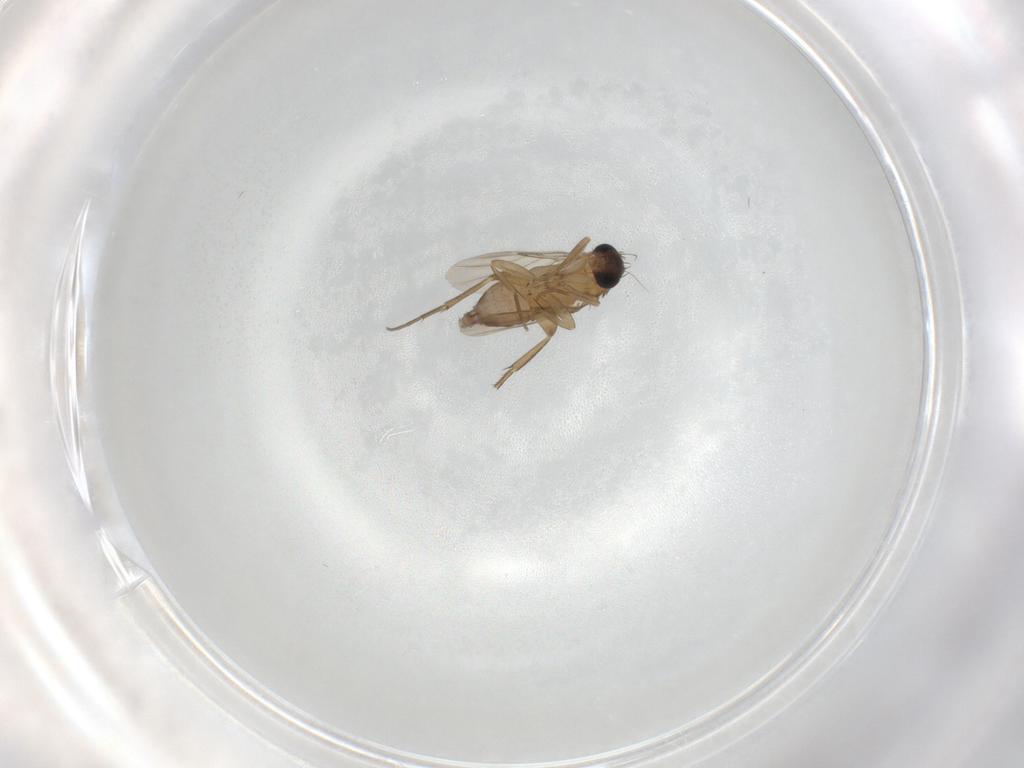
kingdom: Animalia
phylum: Arthropoda
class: Insecta
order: Diptera
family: Phoridae
